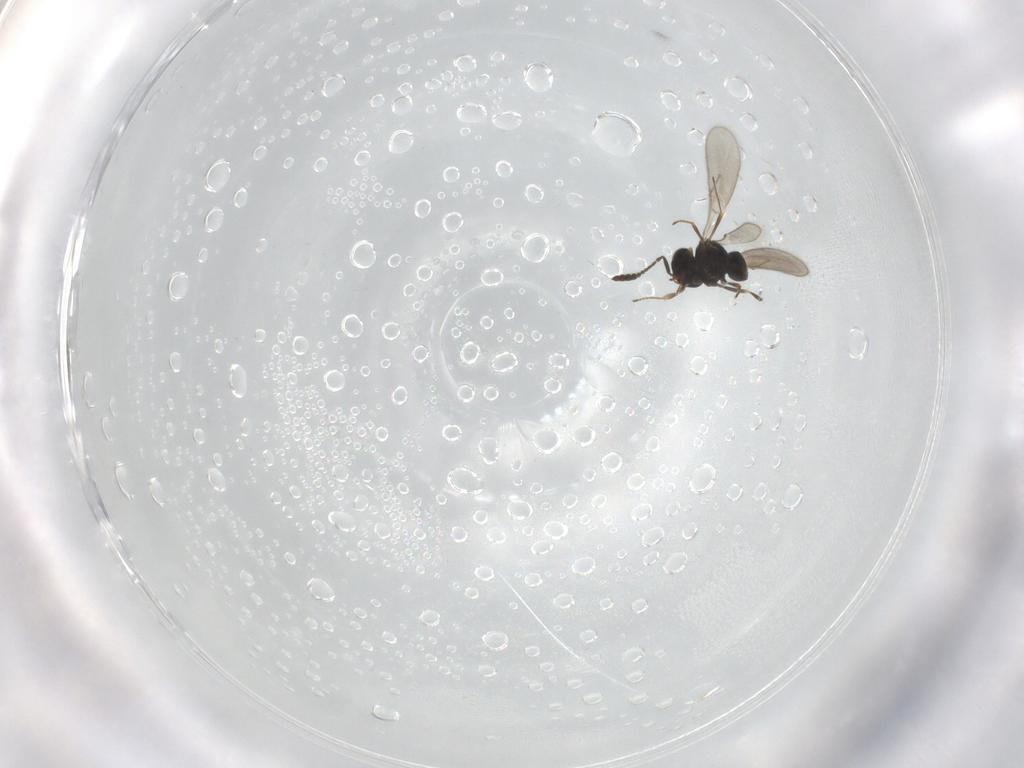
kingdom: Animalia
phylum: Arthropoda
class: Insecta
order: Hymenoptera
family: Scelionidae
